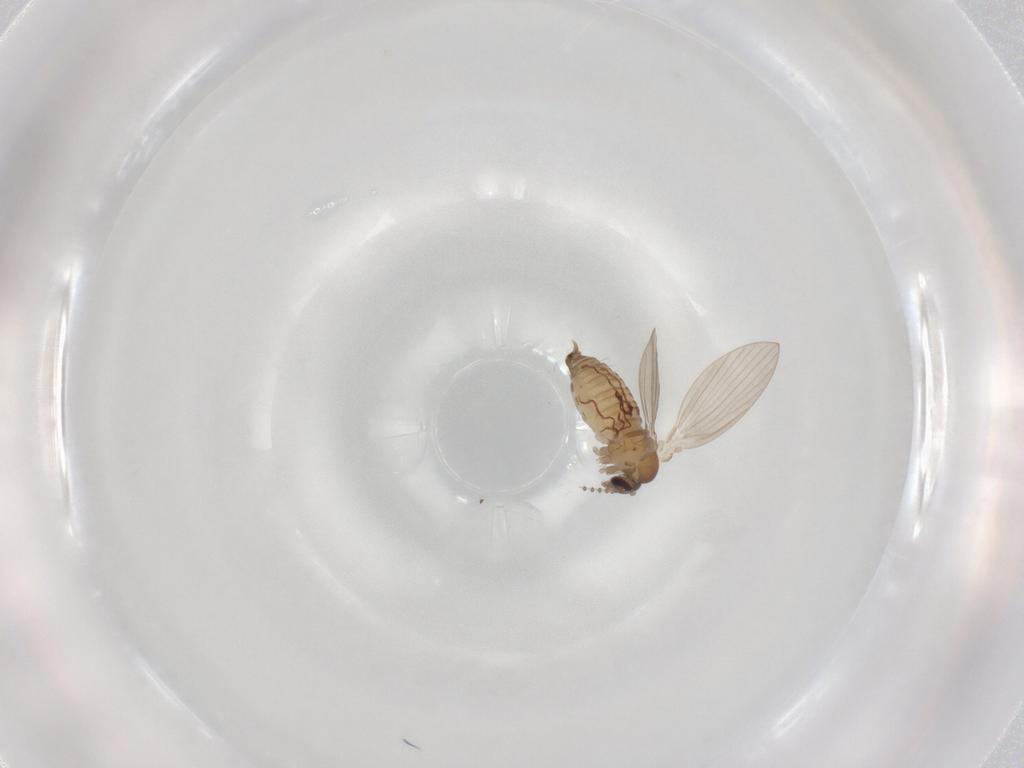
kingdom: Animalia
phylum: Arthropoda
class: Insecta
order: Diptera
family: Psychodidae
